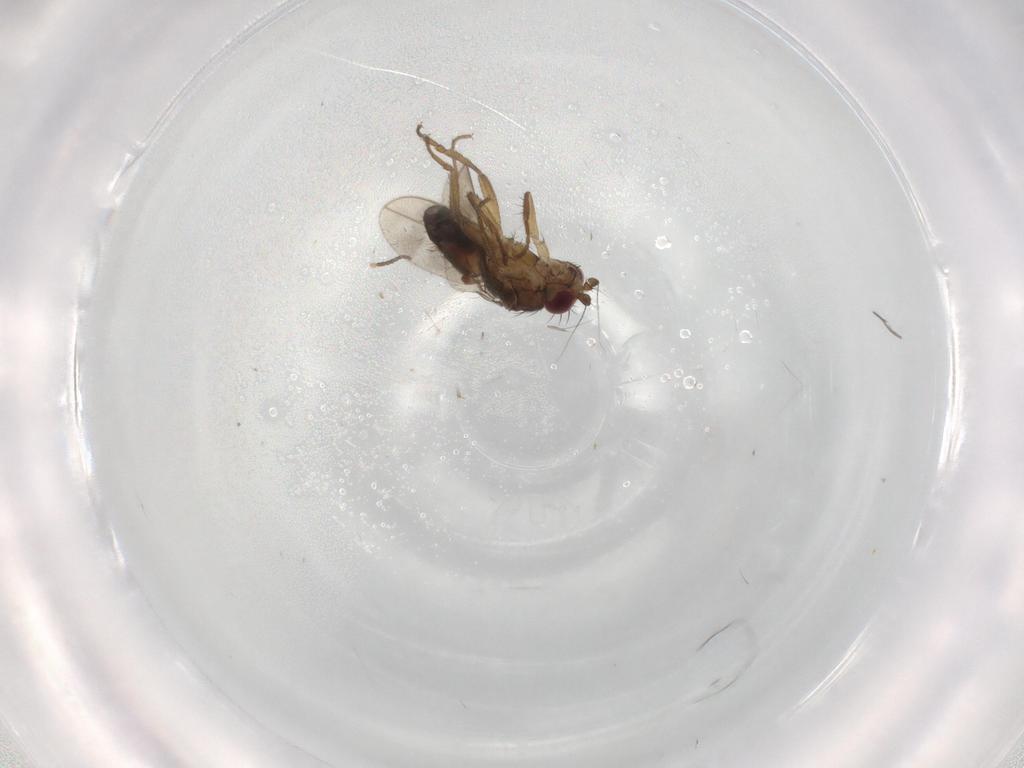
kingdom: Animalia
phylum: Arthropoda
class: Insecta
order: Diptera
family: Sphaeroceridae
